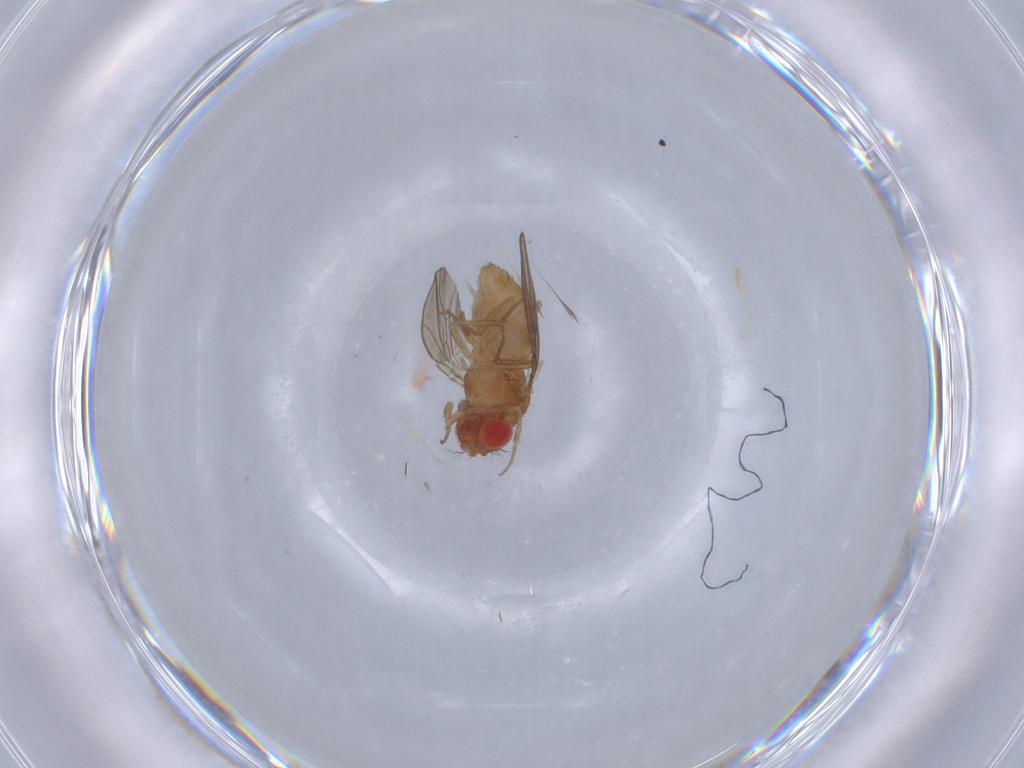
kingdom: Animalia
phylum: Arthropoda
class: Insecta
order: Diptera
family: Drosophilidae
